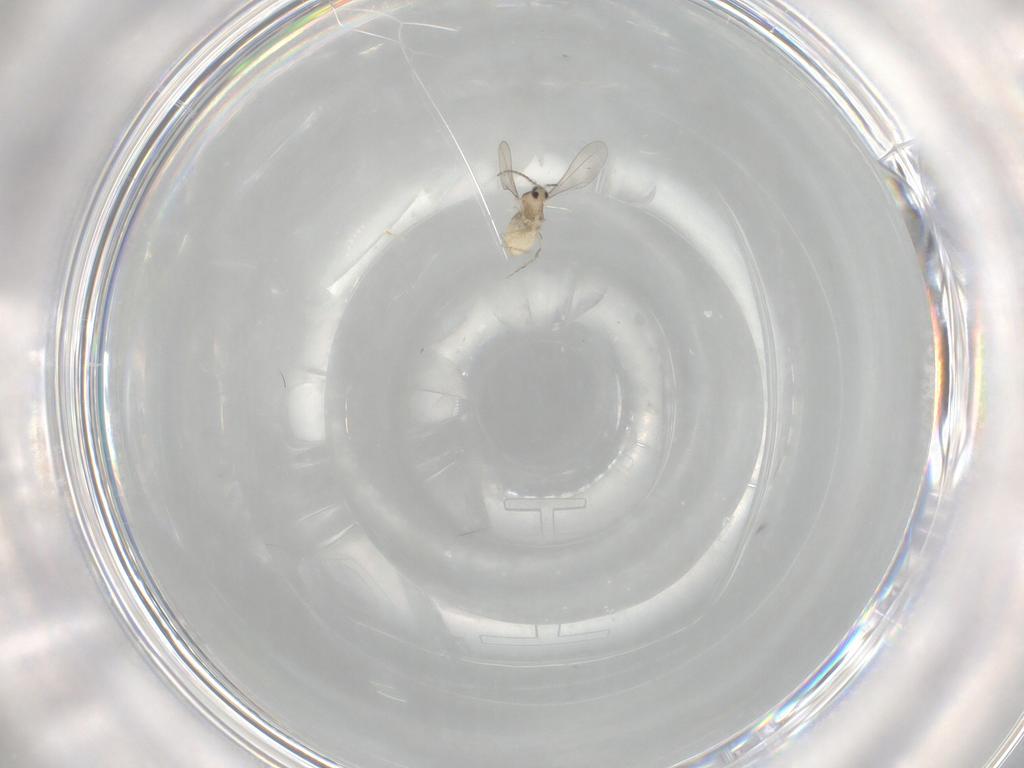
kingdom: Animalia
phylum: Arthropoda
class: Insecta
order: Diptera
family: Cecidomyiidae
